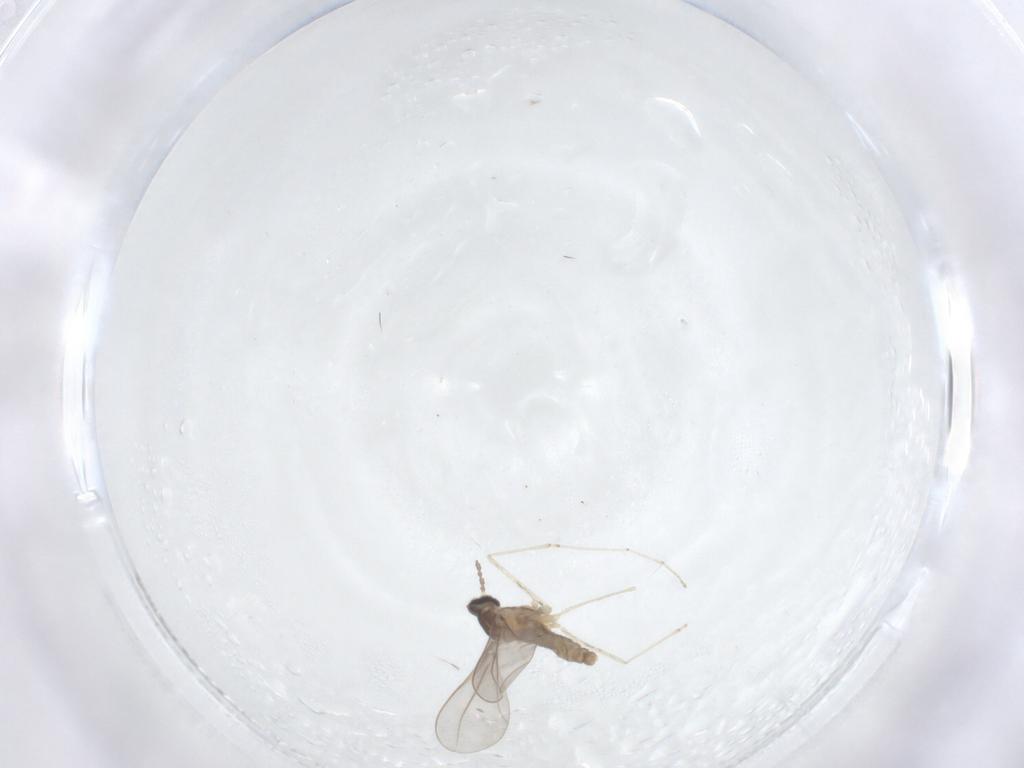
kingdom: Animalia
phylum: Arthropoda
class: Insecta
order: Diptera
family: Cecidomyiidae
